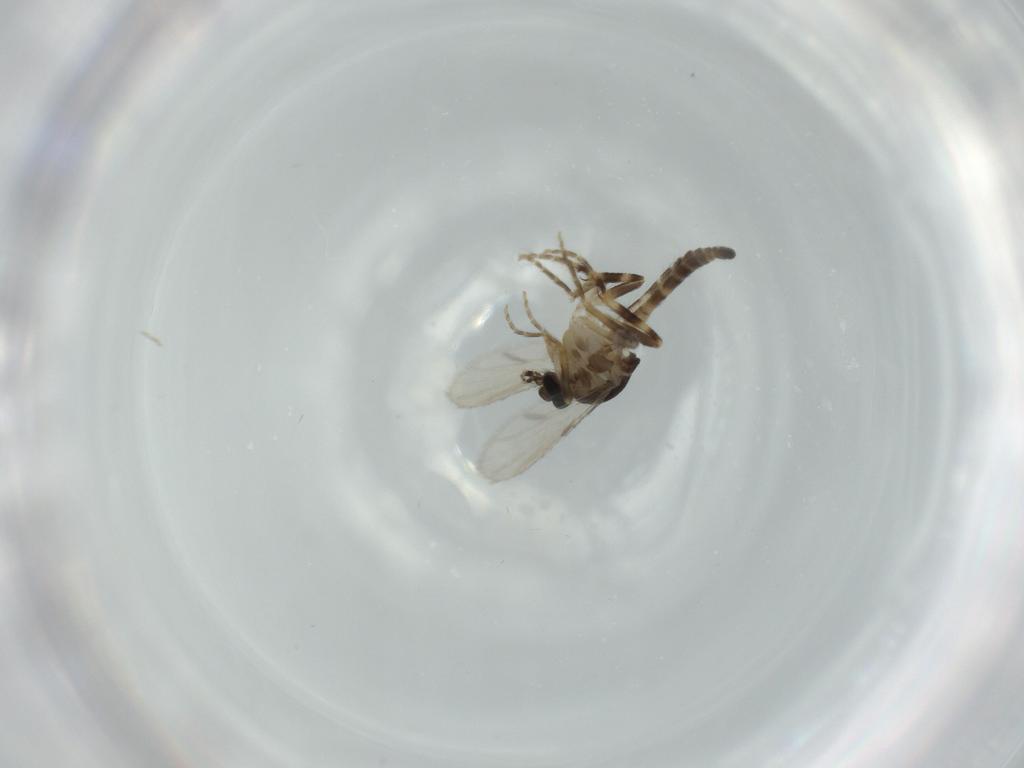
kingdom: Animalia
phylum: Arthropoda
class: Insecta
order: Diptera
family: Ceratopogonidae
